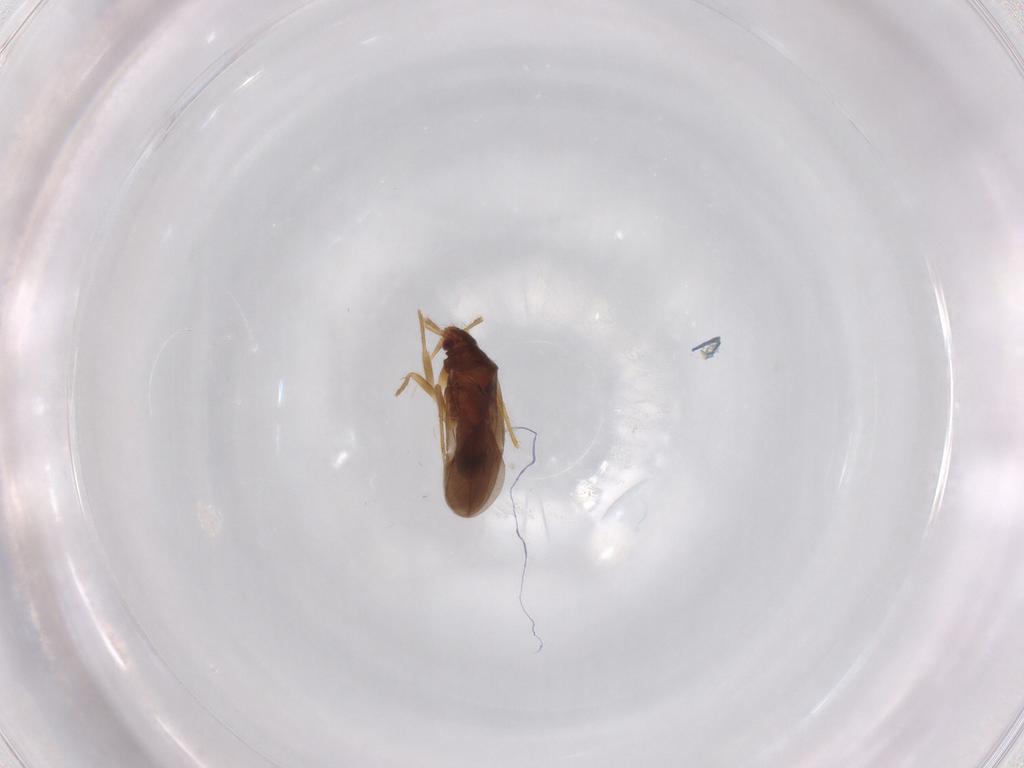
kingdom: Animalia
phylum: Arthropoda
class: Insecta
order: Hemiptera
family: Ceratocombidae
